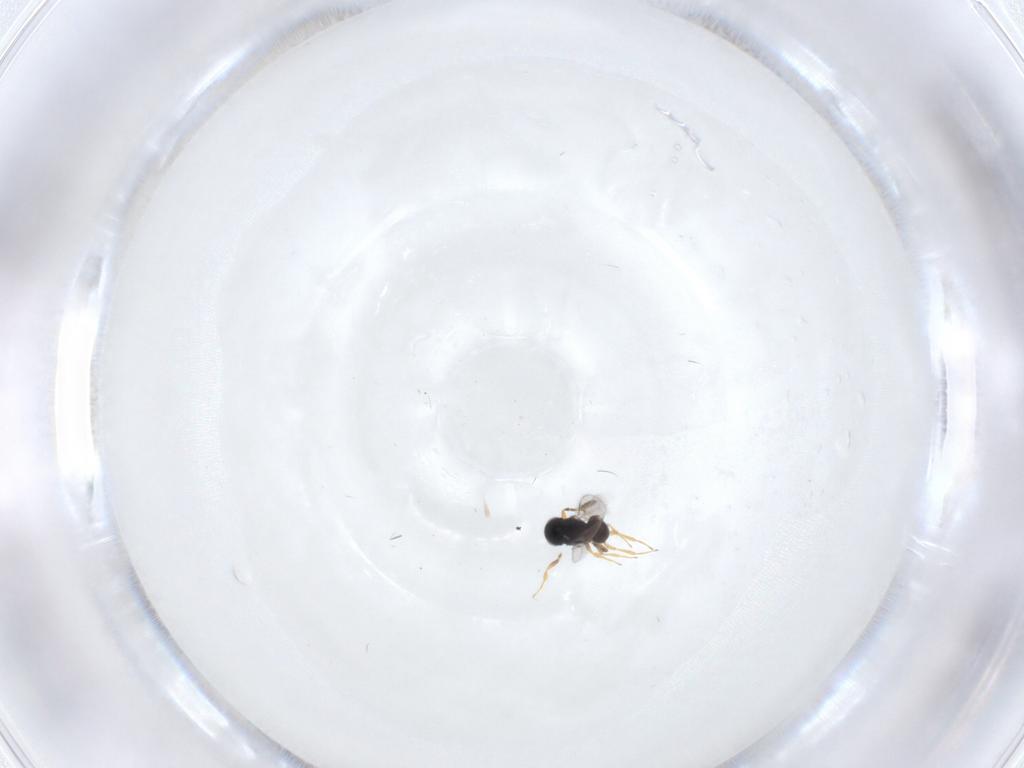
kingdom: Animalia
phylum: Arthropoda
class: Insecta
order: Hymenoptera
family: Scelionidae
